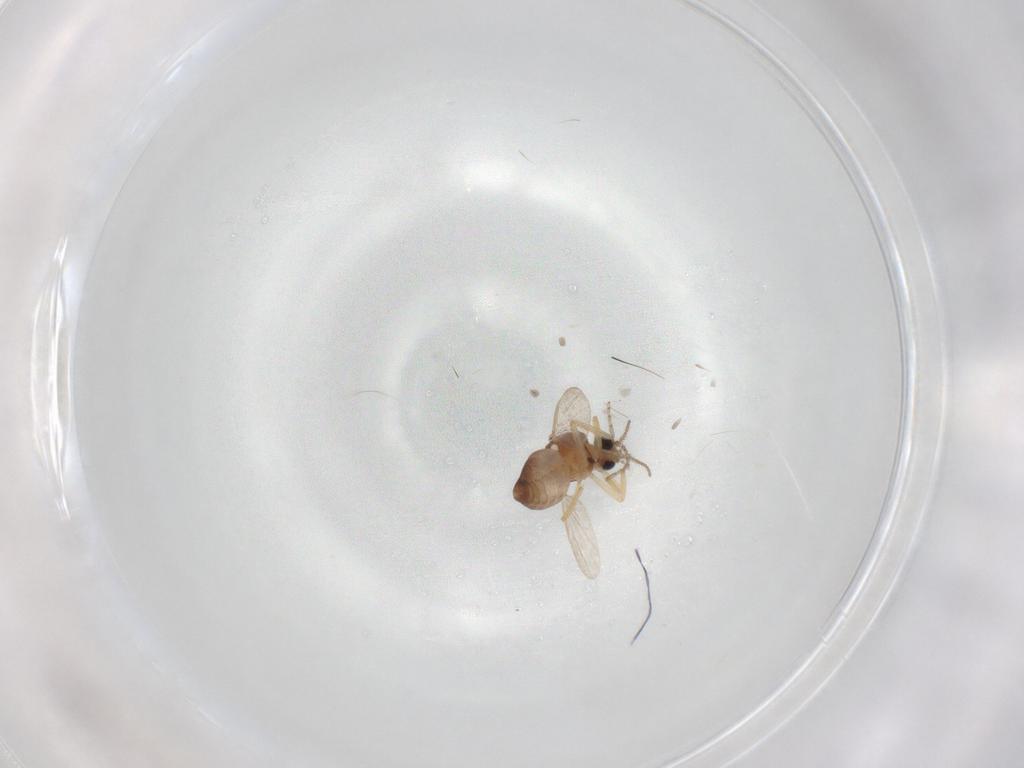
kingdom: Animalia
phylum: Arthropoda
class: Insecta
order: Diptera
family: Ceratopogonidae
